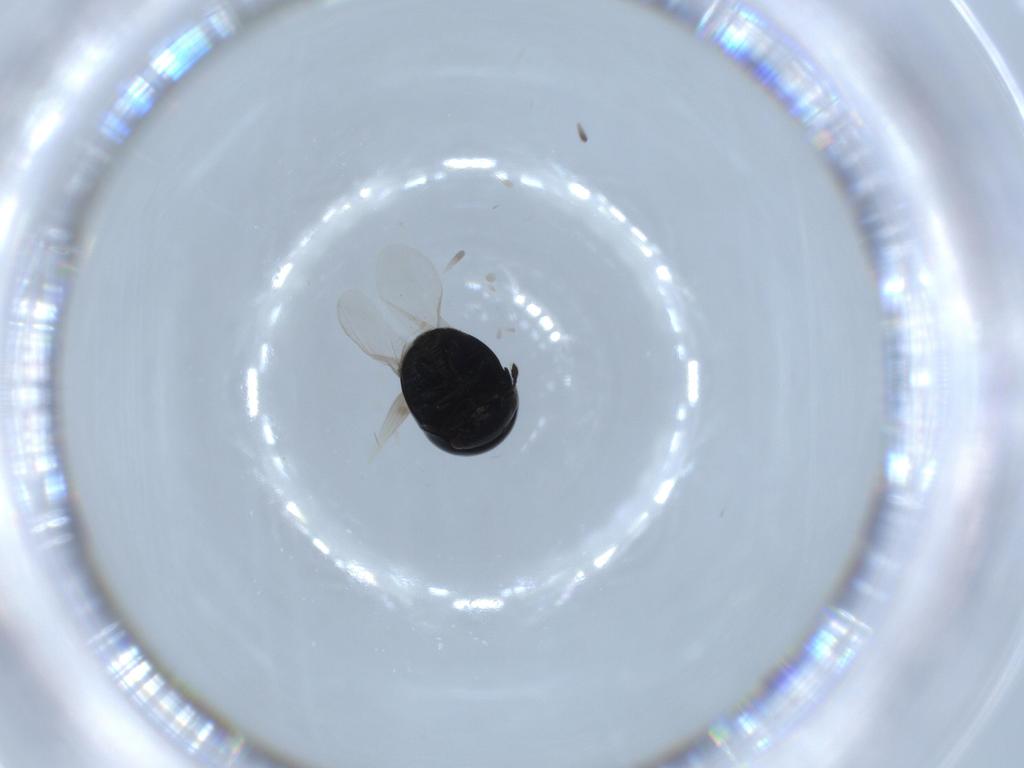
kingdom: Animalia
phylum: Arthropoda
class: Insecta
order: Coleoptera
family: Cybocephalidae
